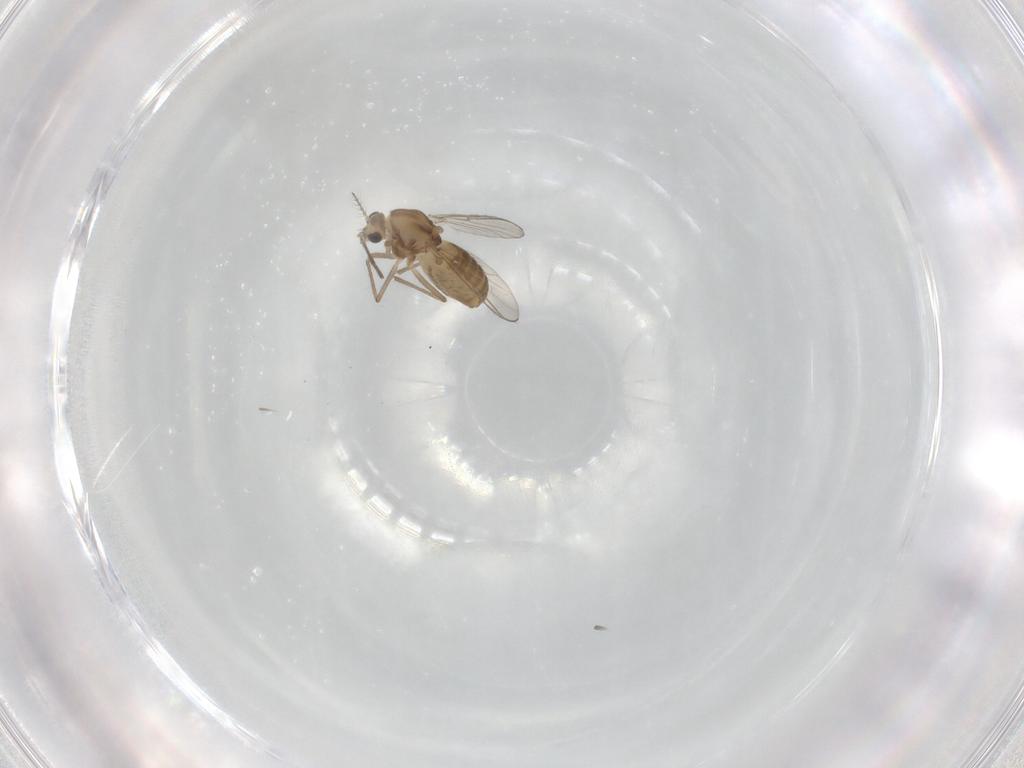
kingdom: Animalia
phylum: Arthropoda
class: Insecta
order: Diptera
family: Chironomidae
